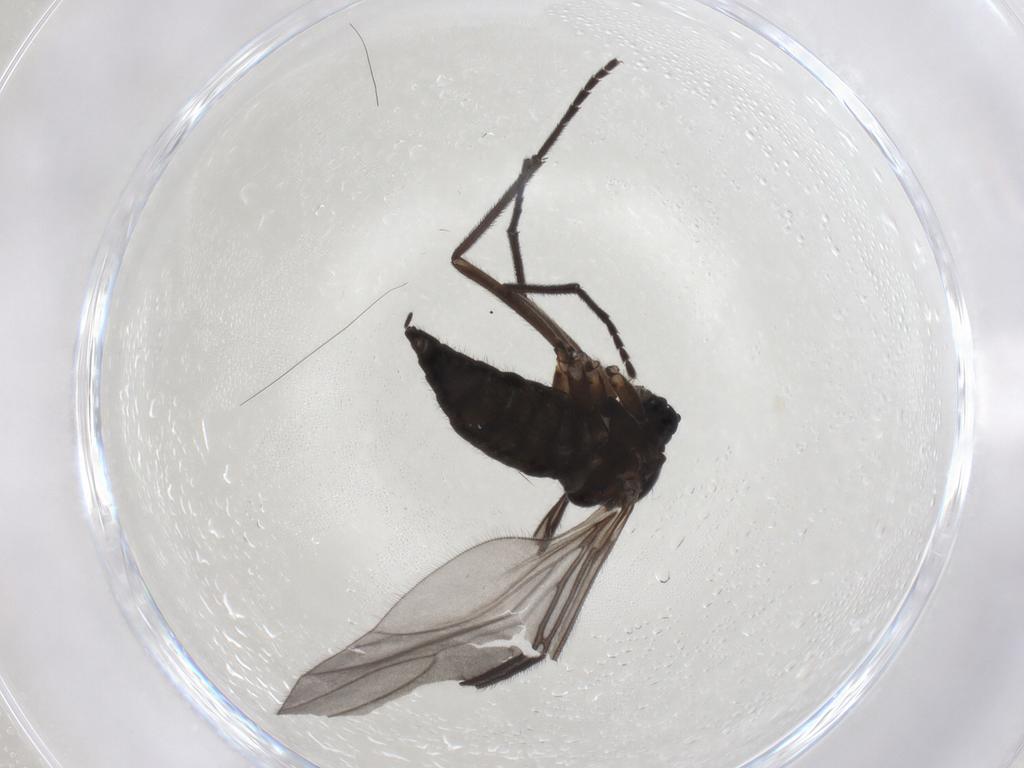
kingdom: Animalia
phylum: Arthropoda
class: Insecta
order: Diptera
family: Sciaridae
